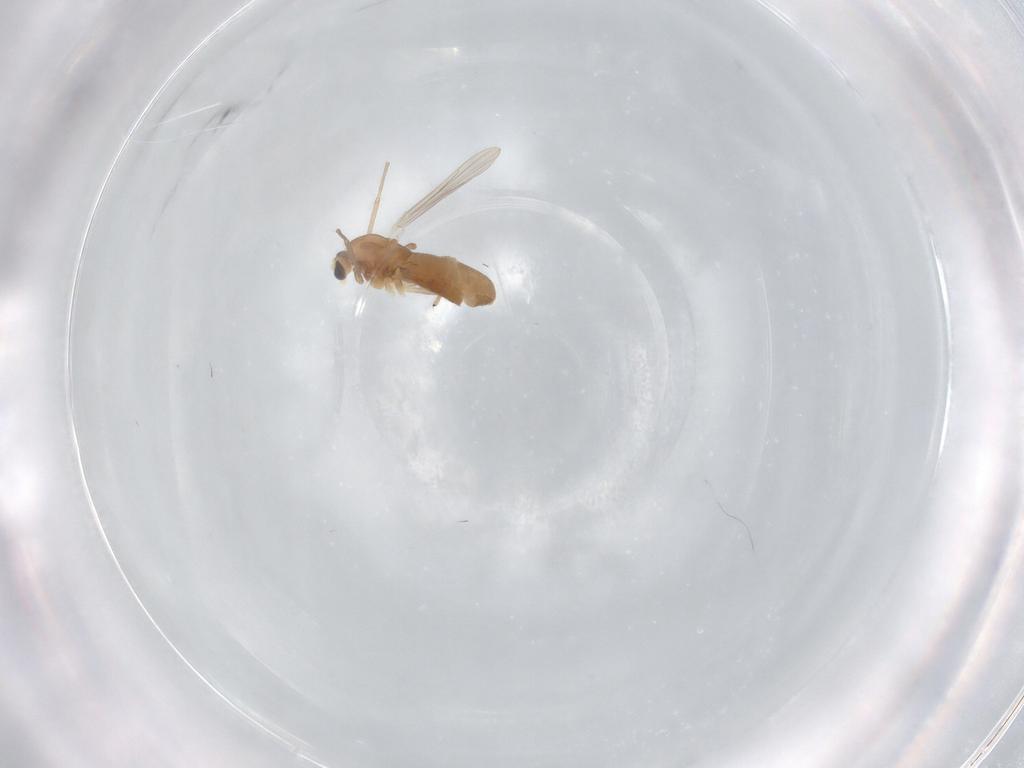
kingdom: Animalia
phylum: Arthropoda
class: Insecta
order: Diptera
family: Chironomidae
